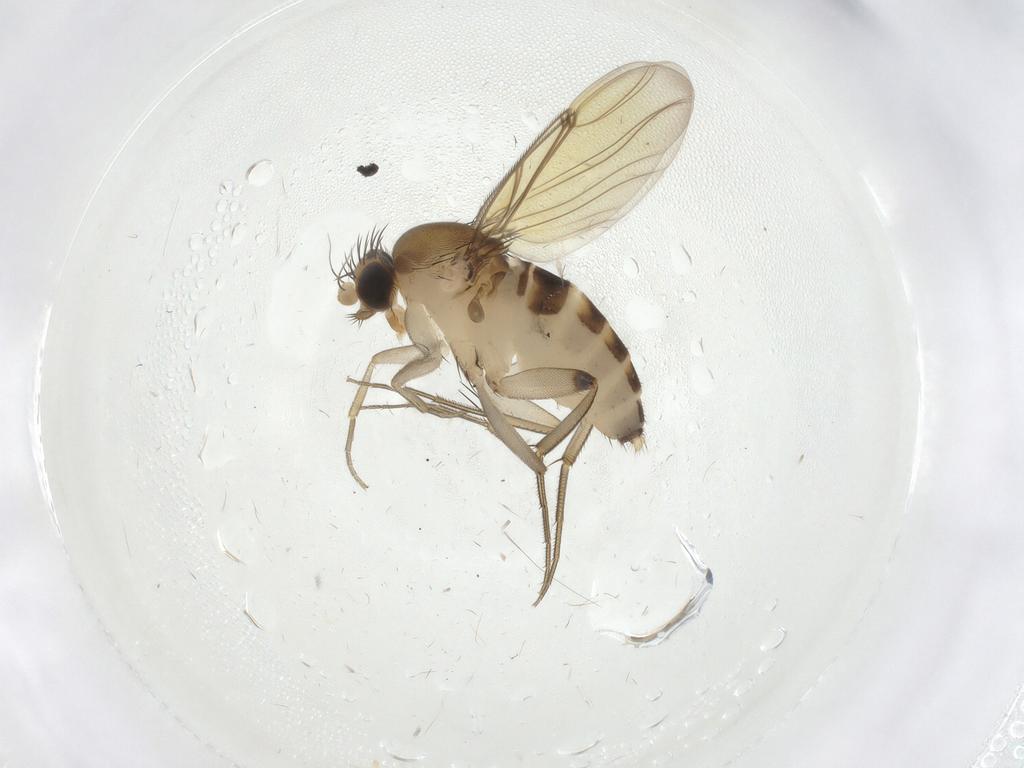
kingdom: Animalia
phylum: Arthropoda
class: Insecta
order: Diptera
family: Phoridae
